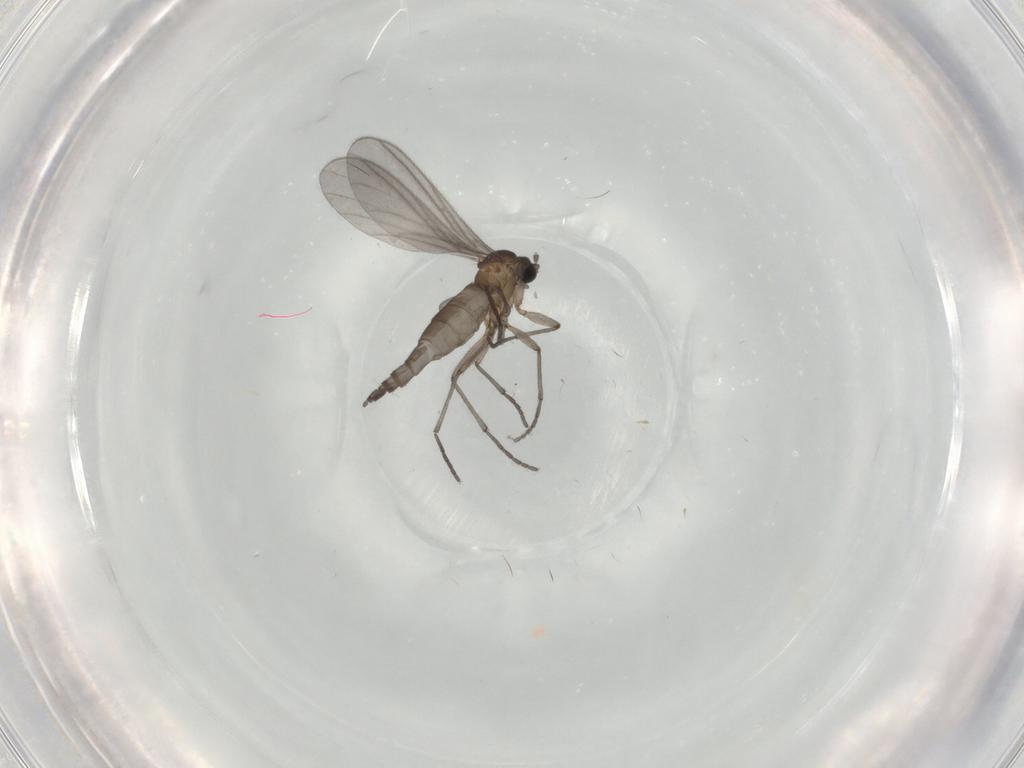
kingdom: Animalia
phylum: Arthropoda
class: Insecta
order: Diptera
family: Sciaridae
